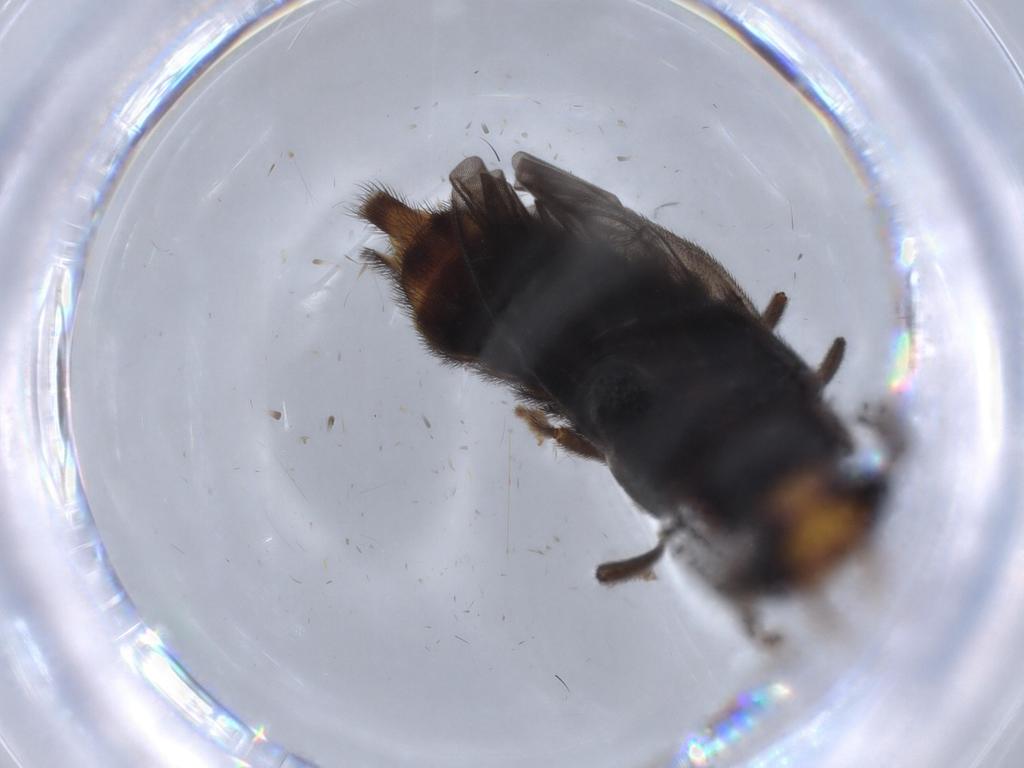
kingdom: Animalia
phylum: Arthropoda
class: Insecta
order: Coleoptera
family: Phengodidae
